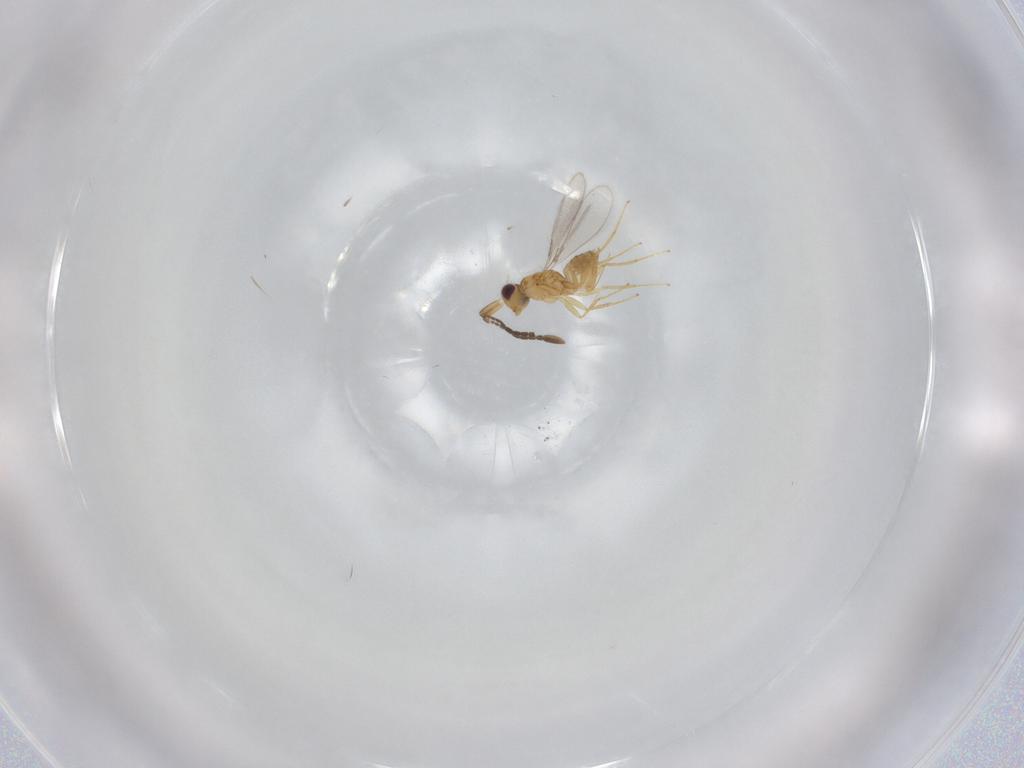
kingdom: Animalia
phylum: Arthropoda
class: Insecta
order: Hymenoptera
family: Mymaridae
